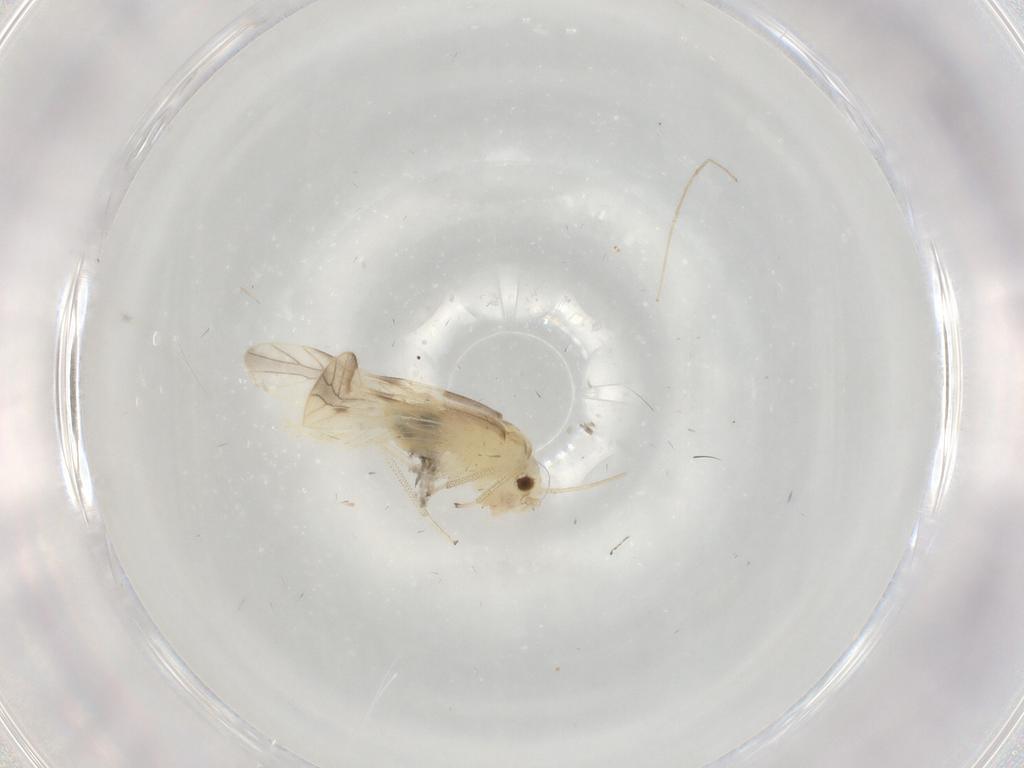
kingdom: Animalia
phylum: Arthropoda
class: Insecta
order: Psocodea
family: Caeciliusidae
